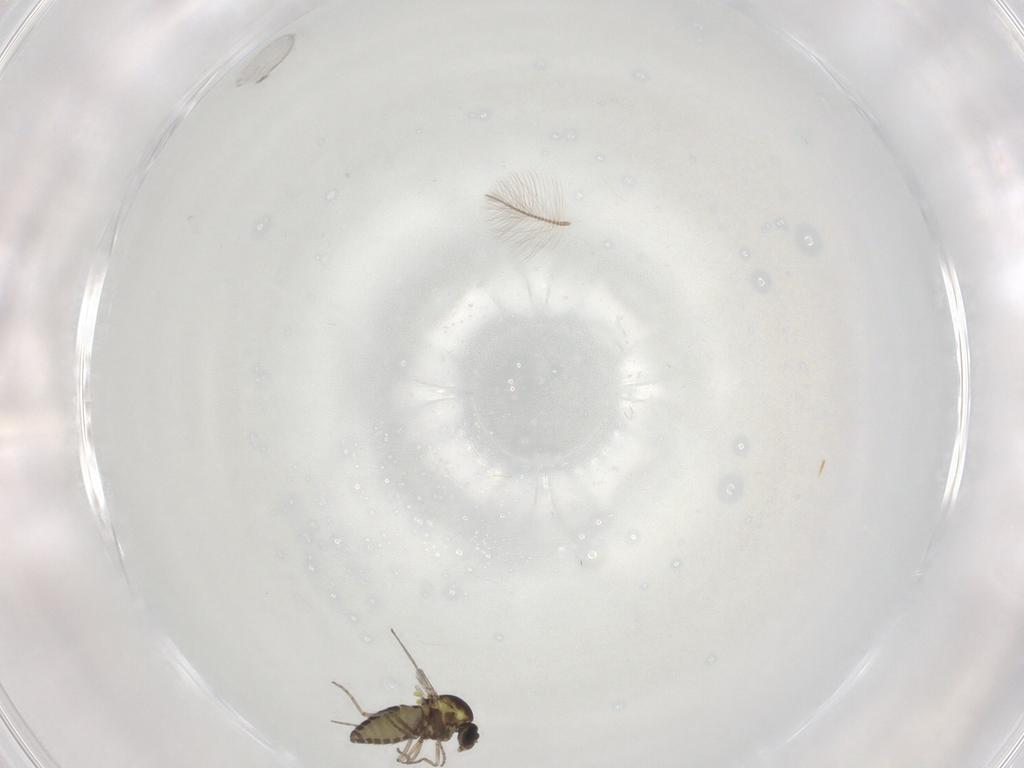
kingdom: Animalia
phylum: Arthropoda
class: Insecta
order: Diptera
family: Ceratopogonidae
